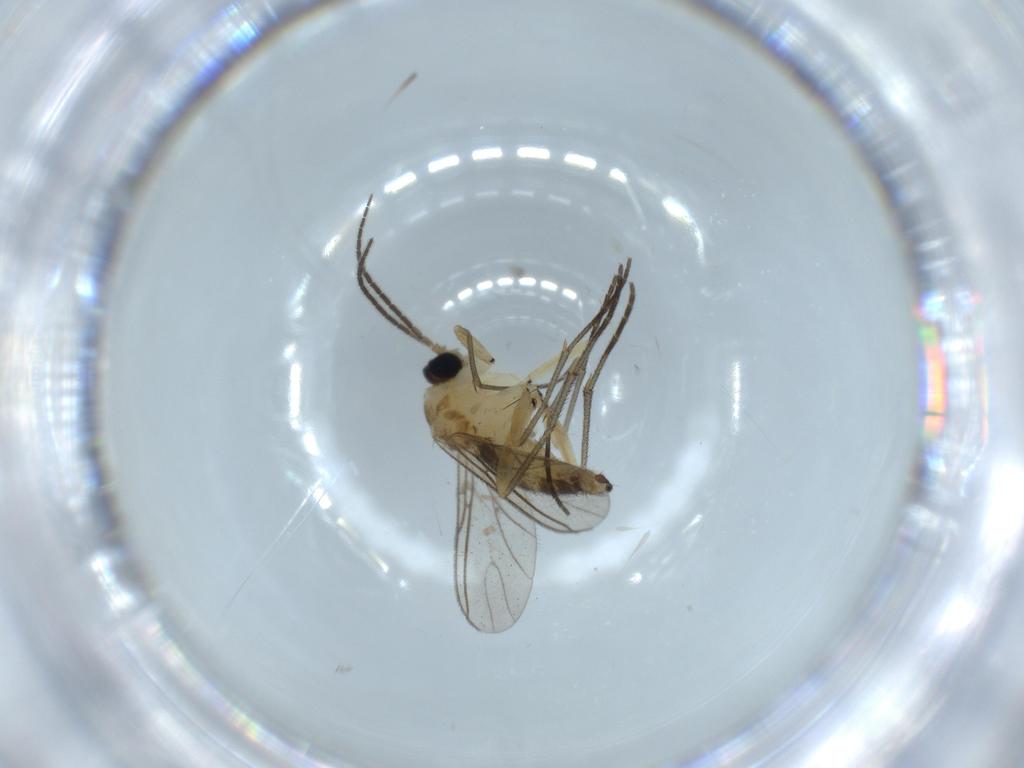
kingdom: Animalia
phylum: Arthropoda
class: Insecta
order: Diptera
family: Sciaridae
